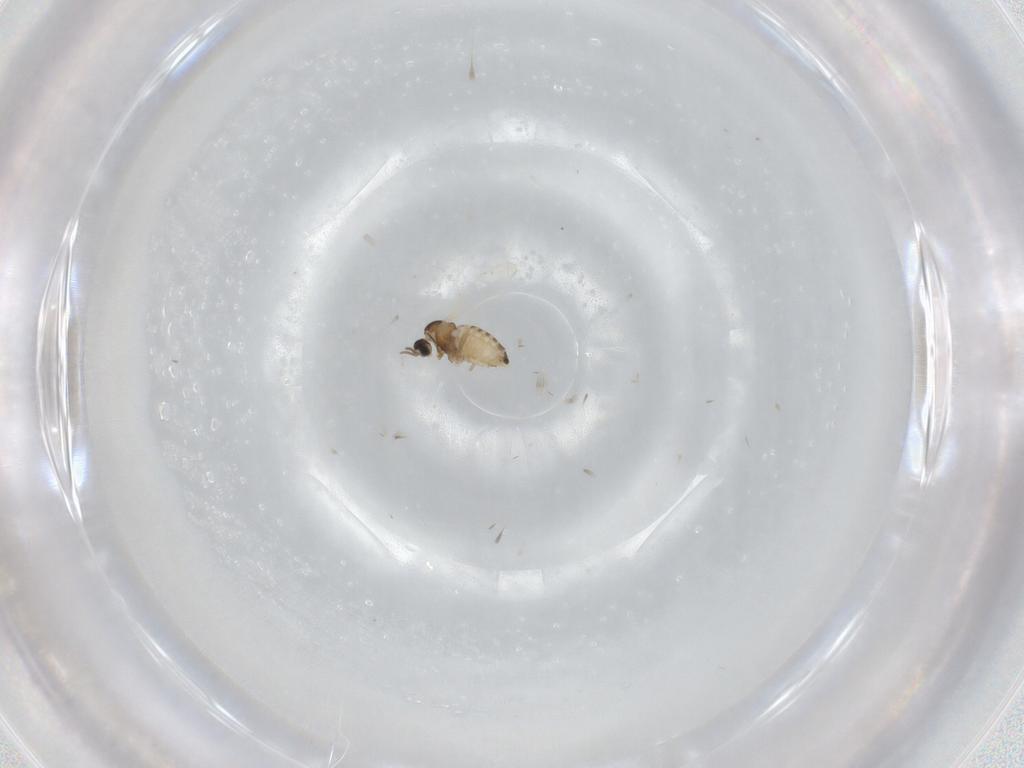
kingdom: Animalia
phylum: Arthropoda
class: Insecta
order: Diptera
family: Cecidomyiidae
